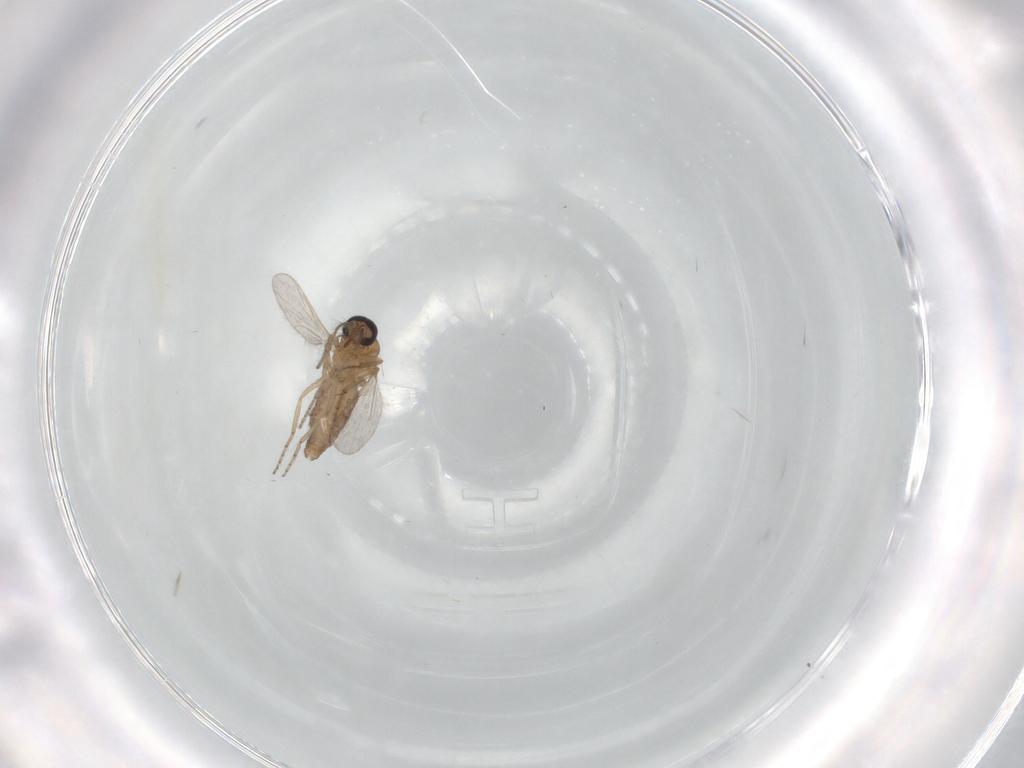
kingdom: Animalia
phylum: Arthropoda
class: Insecta
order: Diptera
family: Ceratopogonidae
